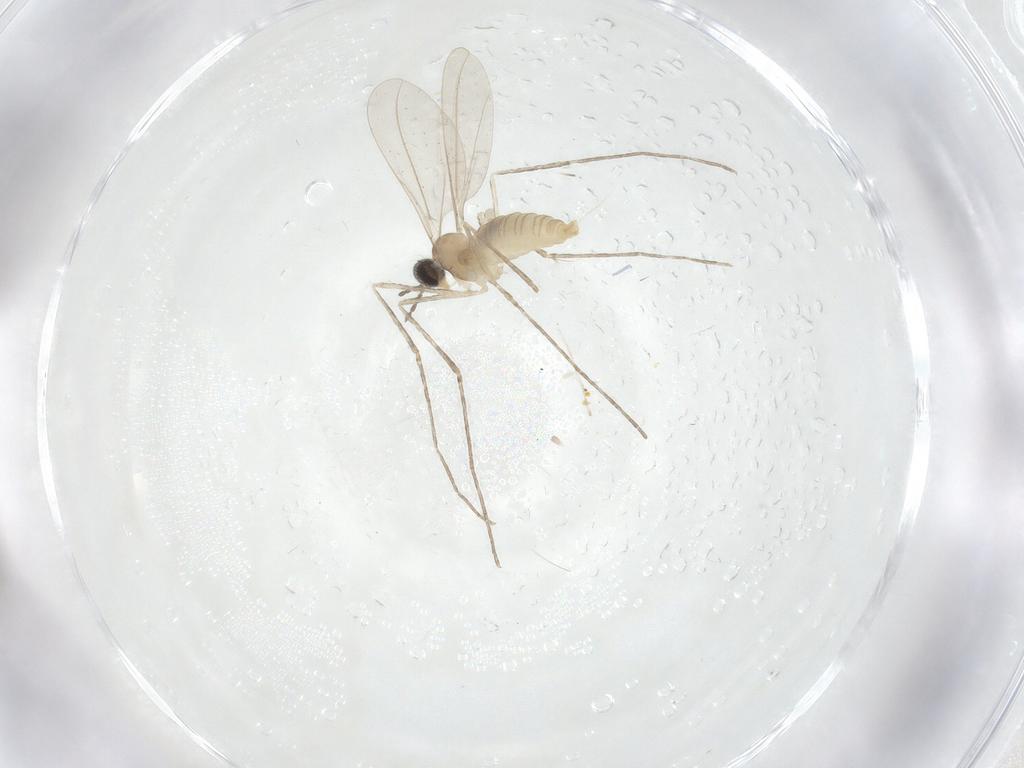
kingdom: Animalia
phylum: Arthropoda
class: Insecta
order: Diptera
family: Cecidomyiidae
